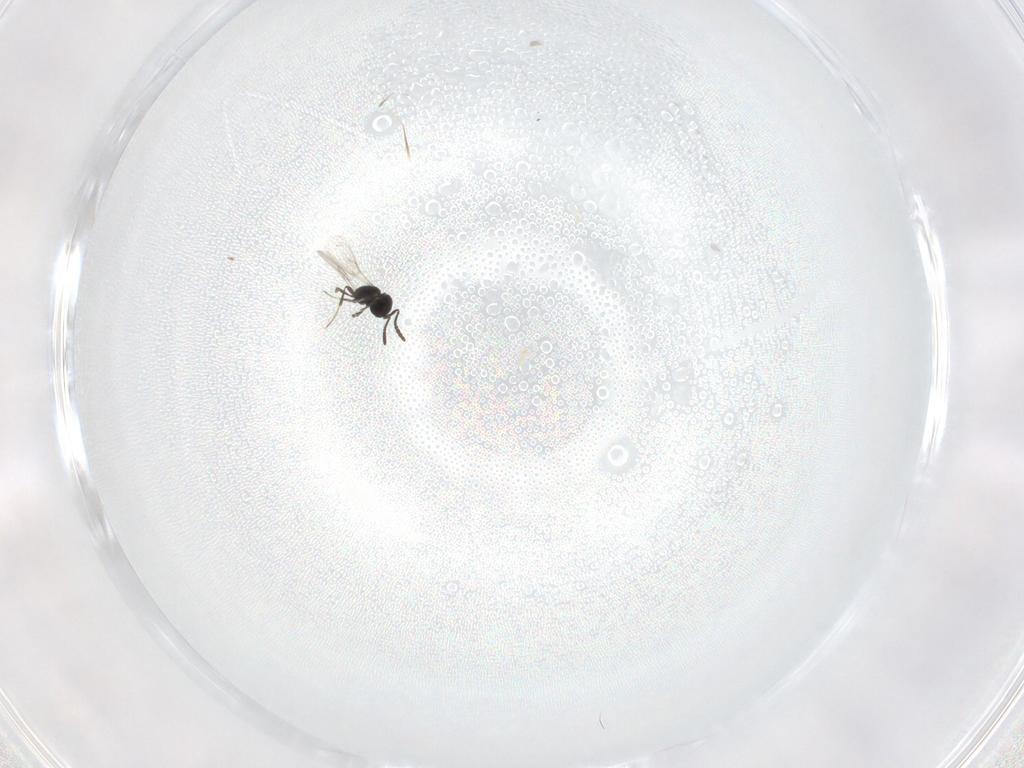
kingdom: Animalia
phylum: Arthropoda
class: Insecta
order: Hymenoptera
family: Scelionidae
